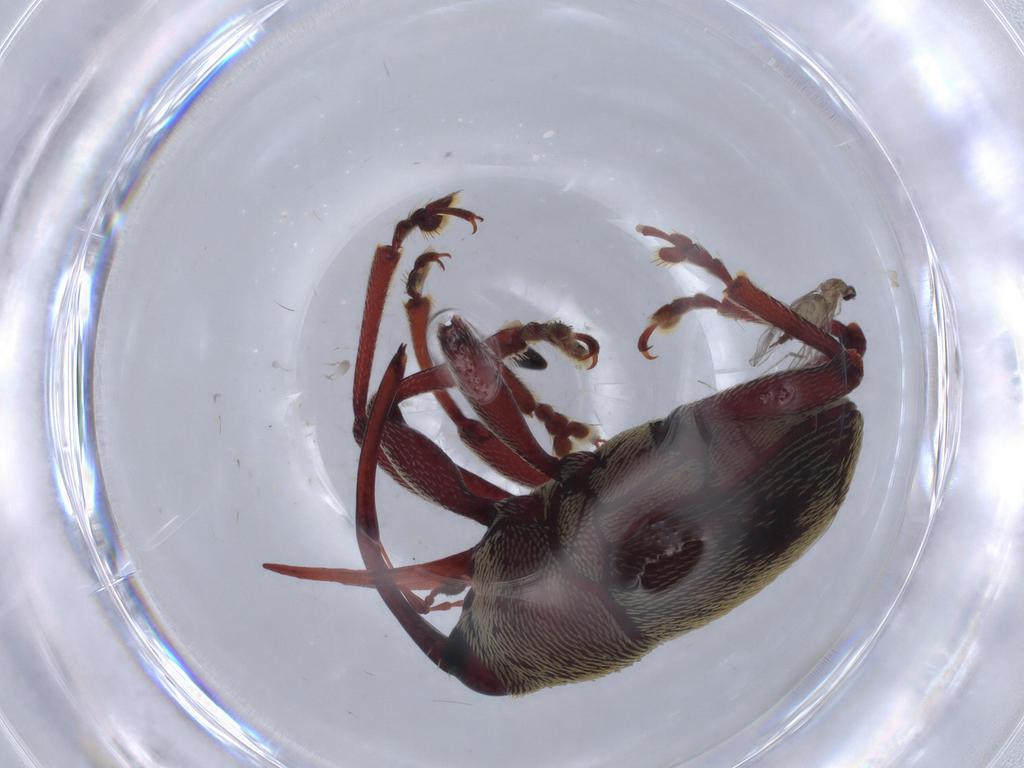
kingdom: Animalia
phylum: Arthropoda
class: Insecta
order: Diptera
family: Milichiidae
